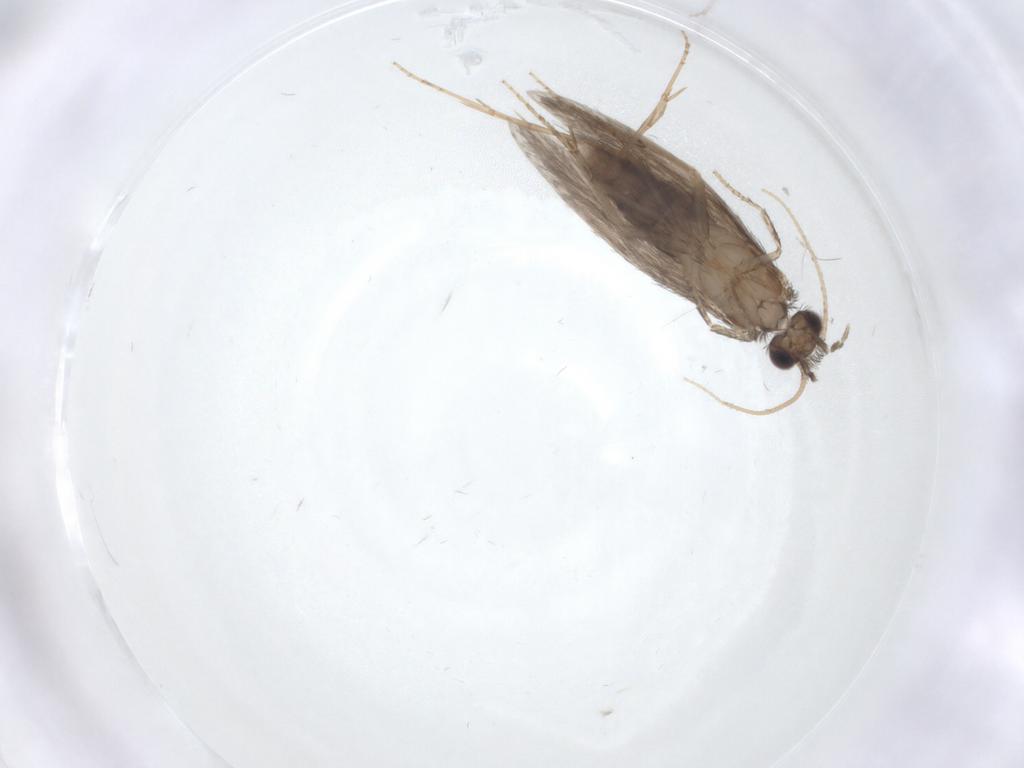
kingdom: Animalia
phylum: Arthropoda
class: Insecta
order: Trichoptera
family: Hydroptilidae
